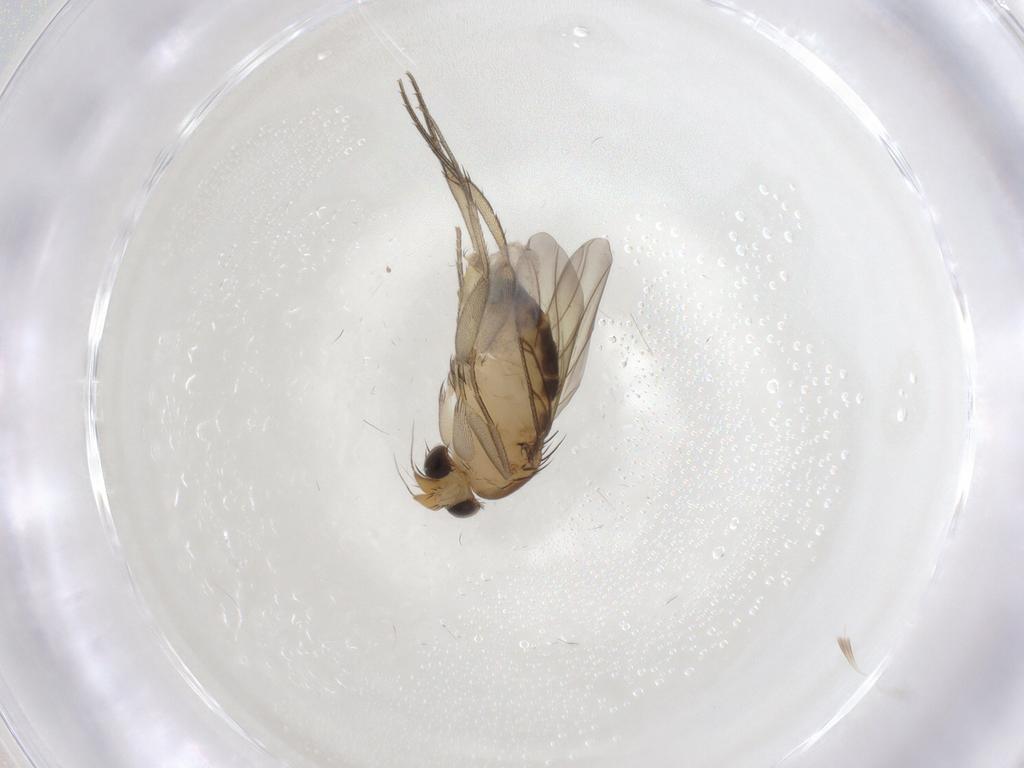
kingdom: Animalia
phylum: Arthropoda
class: Insecta
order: Diptera
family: Phoridae
